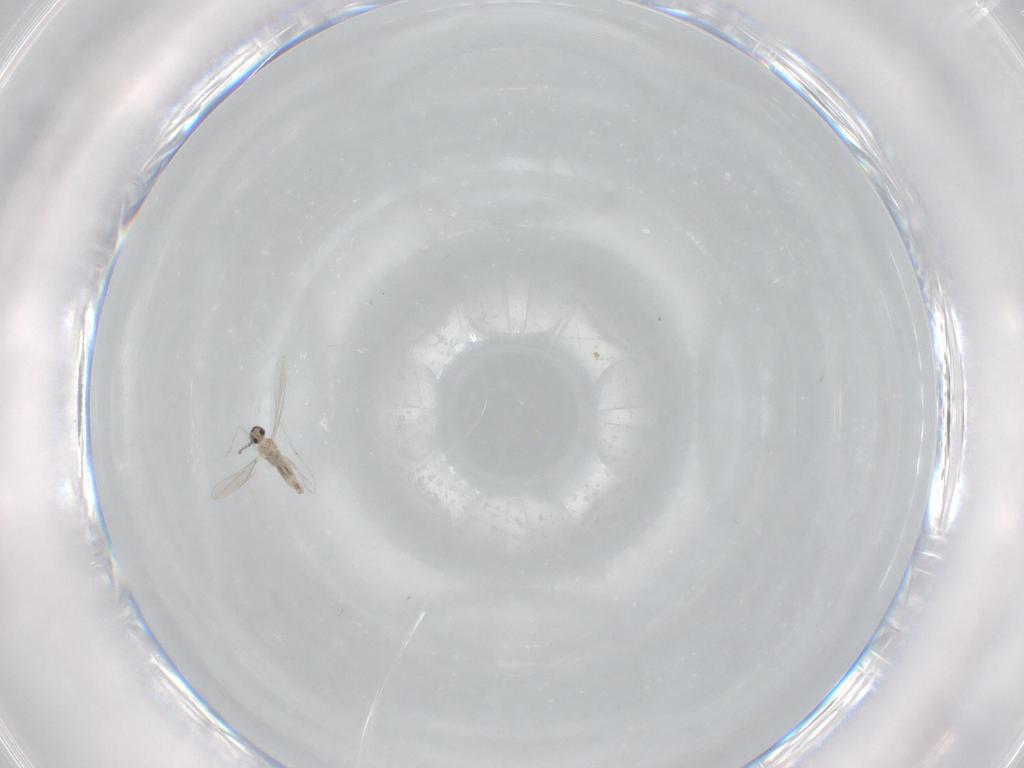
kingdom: Animalia
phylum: Arthropoda
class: Insecta
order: Diptera
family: Cecidomyiidae
